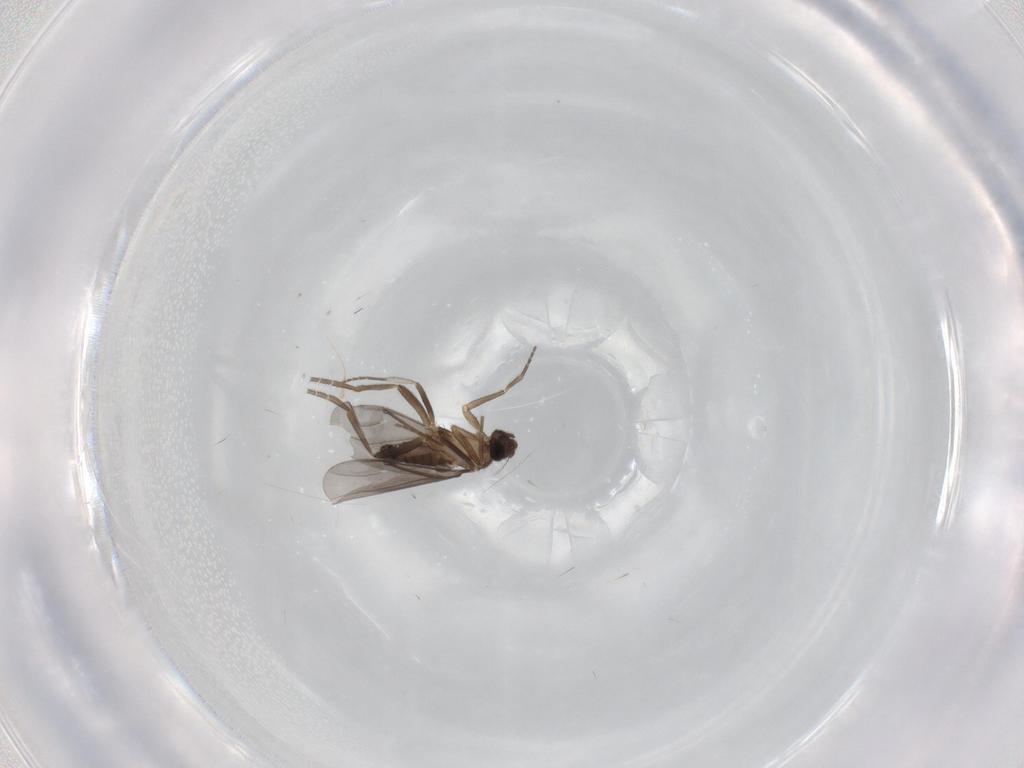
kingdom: Animalia
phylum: Arthropoda
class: Insecta
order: Diptera
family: Phoridae
